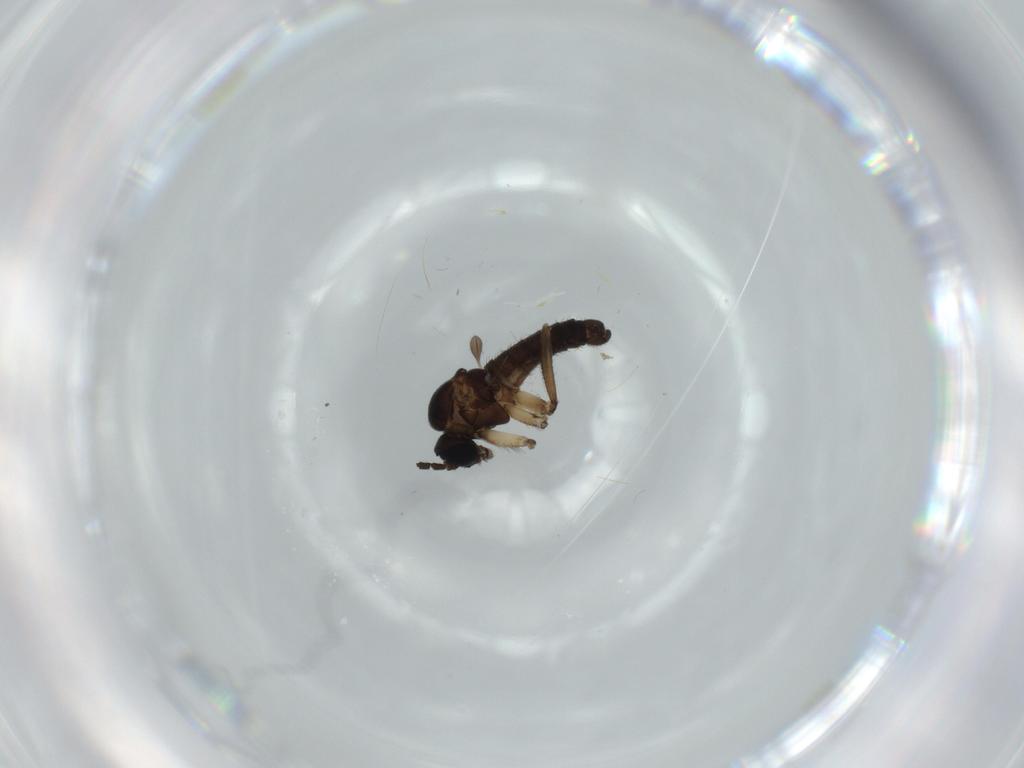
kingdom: Animalia
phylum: Arthropoda
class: Insecta
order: Diptera
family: Sciaridae
